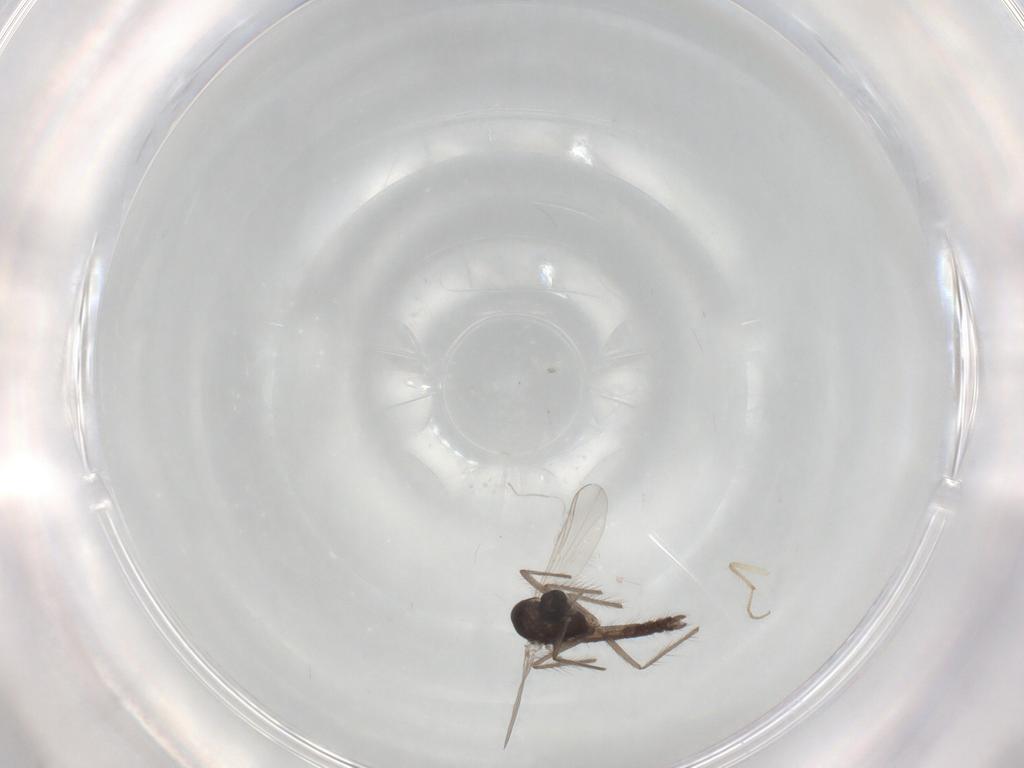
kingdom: Animalia
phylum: Arthropoda
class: Insecta
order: Diptera
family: Chironomidae
